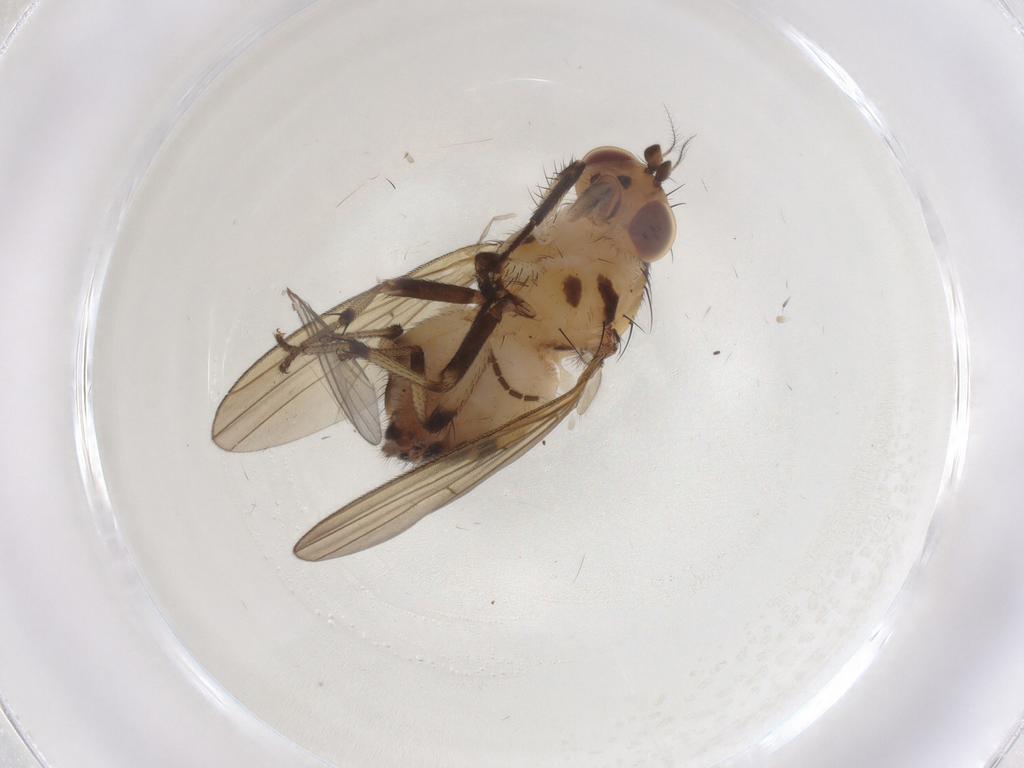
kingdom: Animalia
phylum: Arthropoda
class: Insecta
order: Diptera
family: Lauxaniidae
